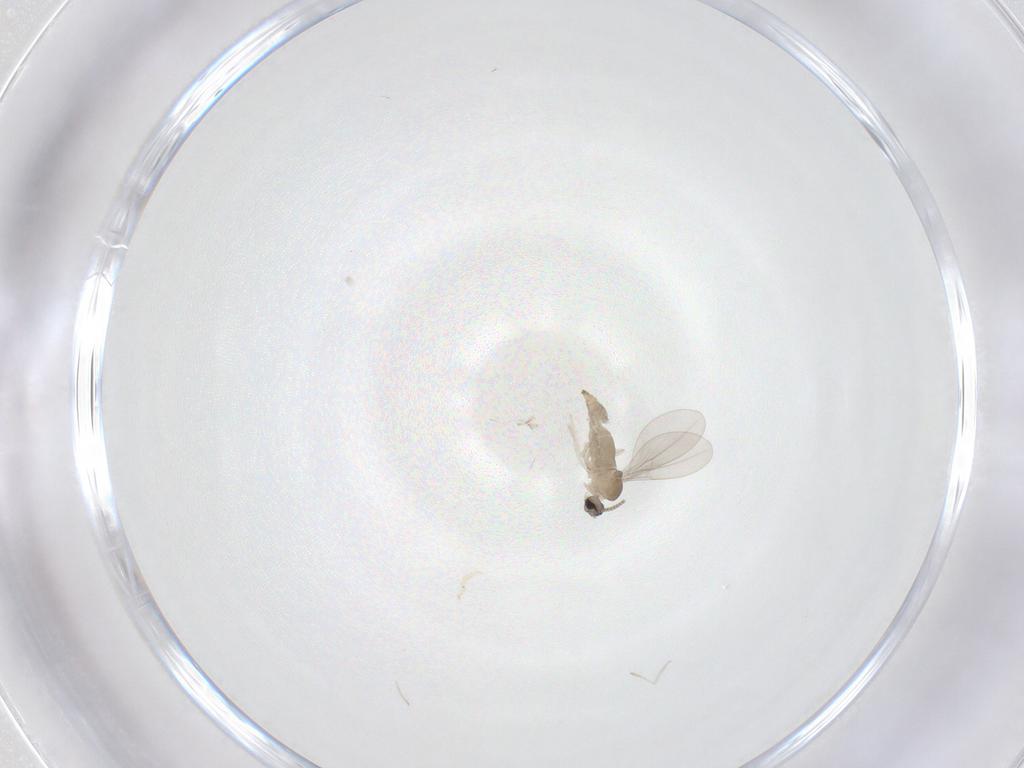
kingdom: Animalia
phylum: Arthropoda
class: Insecta
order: Diptera
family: Cecidomyiidae
